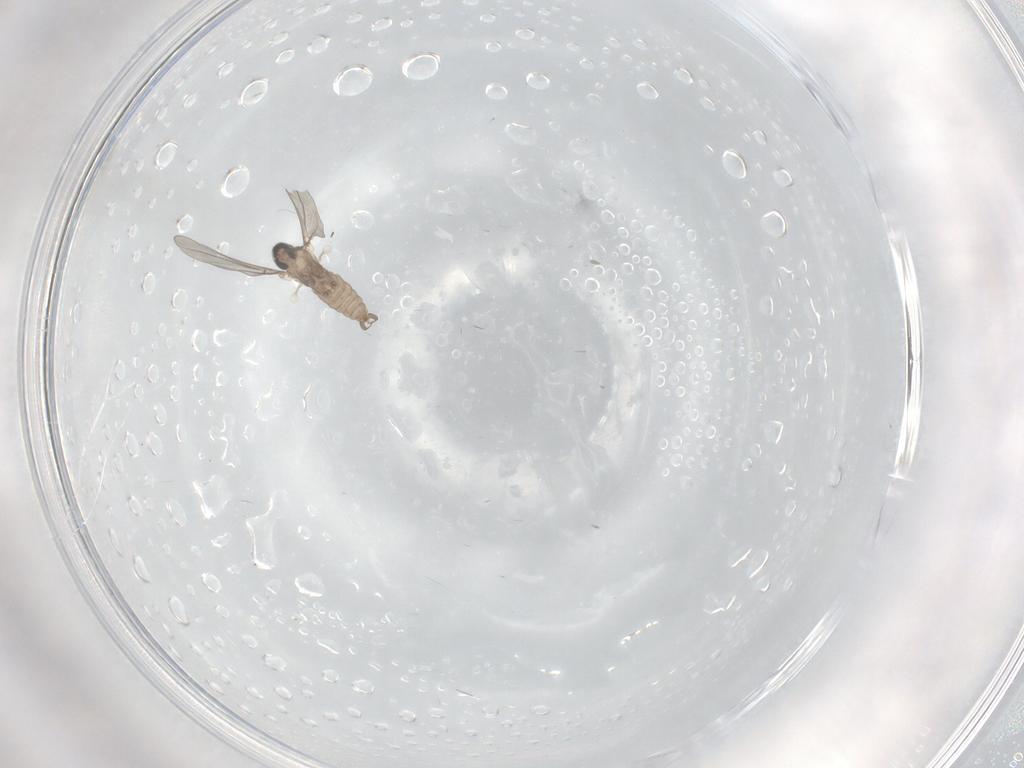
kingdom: Animalia
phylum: Arthropoda
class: Insecta
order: Diptera
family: Cecidomyiidae
